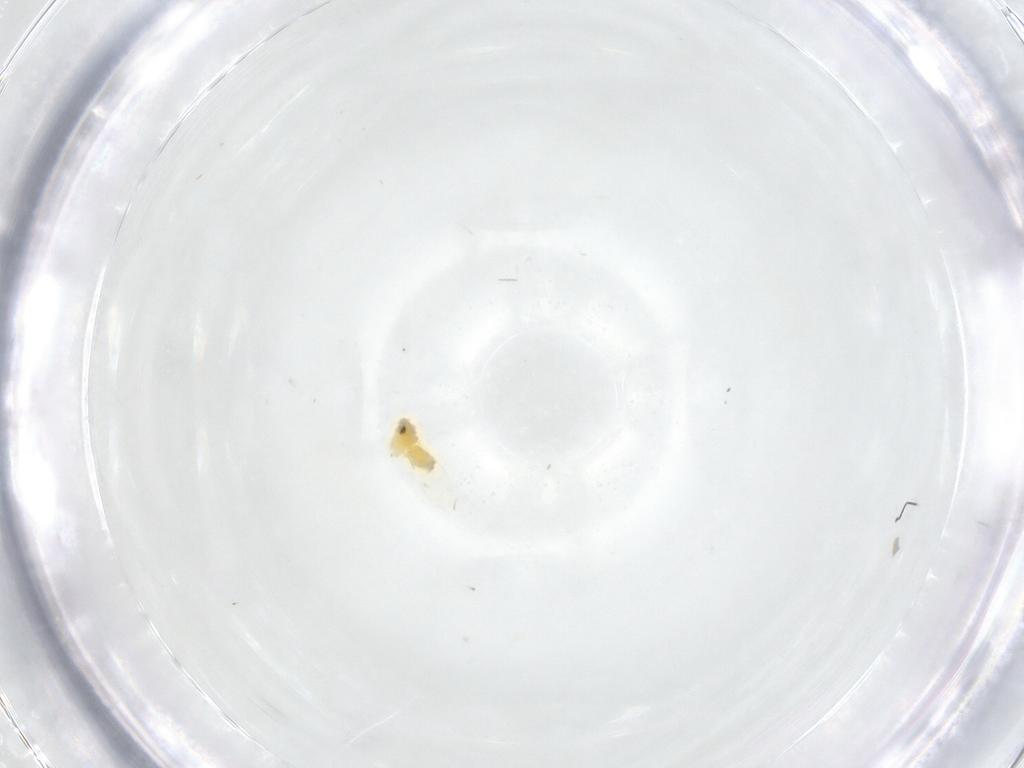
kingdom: Animalia
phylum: Arthropoda
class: Insecta
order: Hemiptera
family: Aleyrodidae
